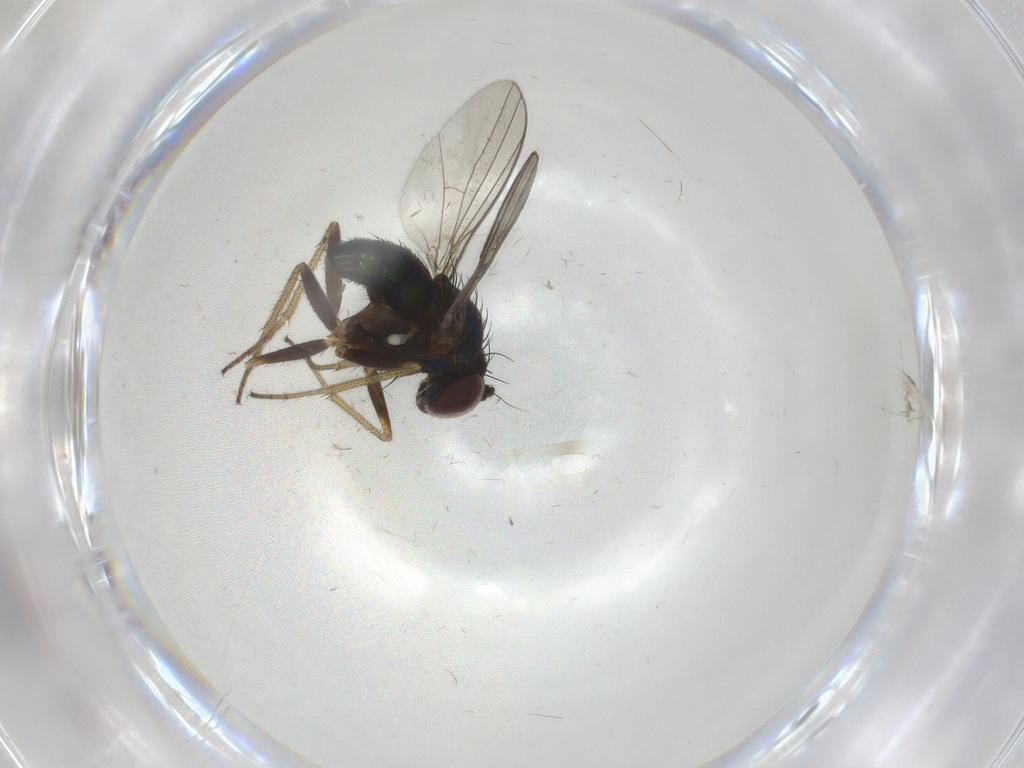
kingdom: Animalia
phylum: Arthropoda
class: Insecta
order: Diptera
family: Dolichopodidae
